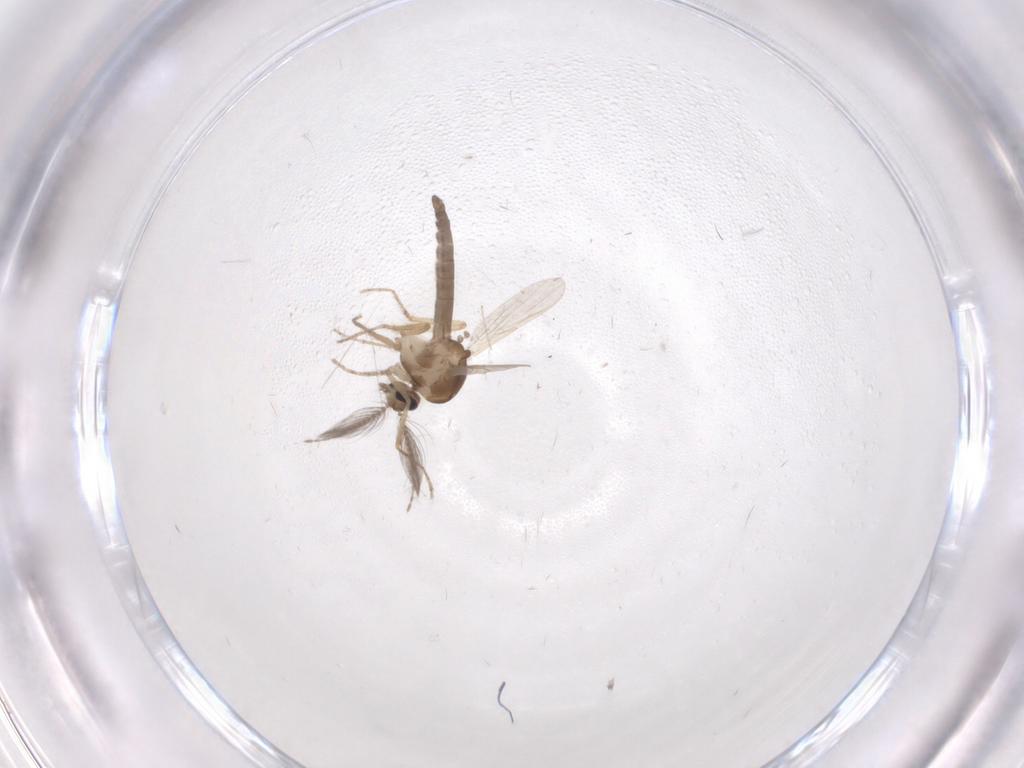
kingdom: Animalia
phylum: Arthropoda
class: Insecta
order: Diptera
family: Ceratopogonidae
